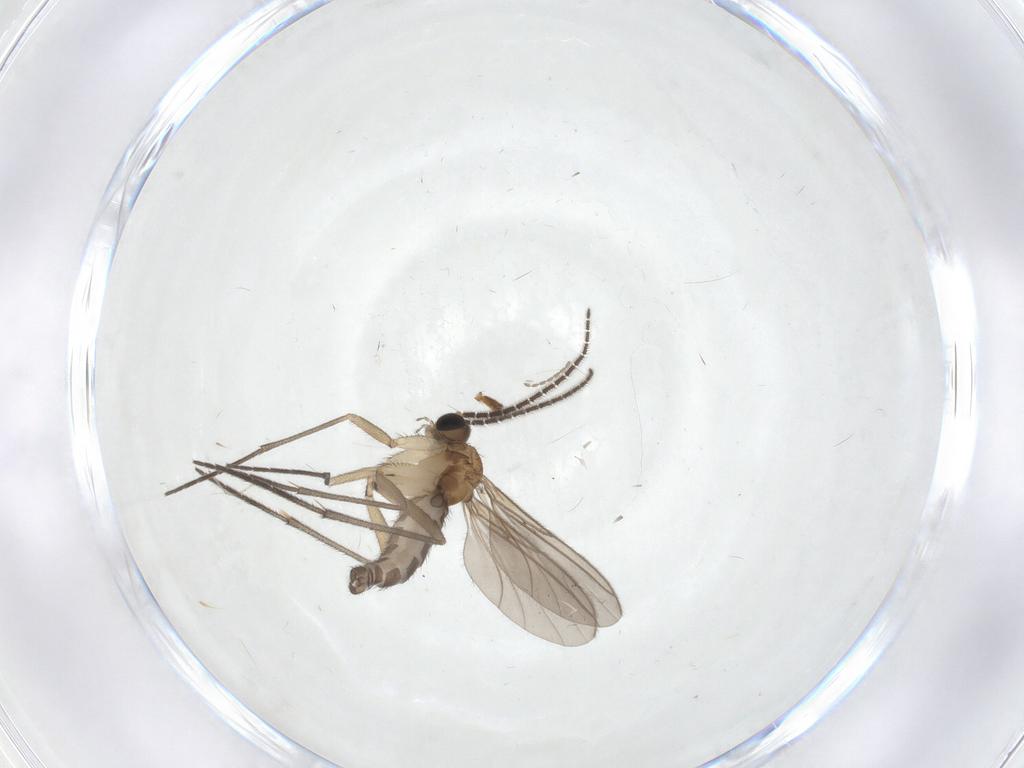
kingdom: Animalia
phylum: Arthropoda
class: Insecta
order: Diptera
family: Sciaridae
